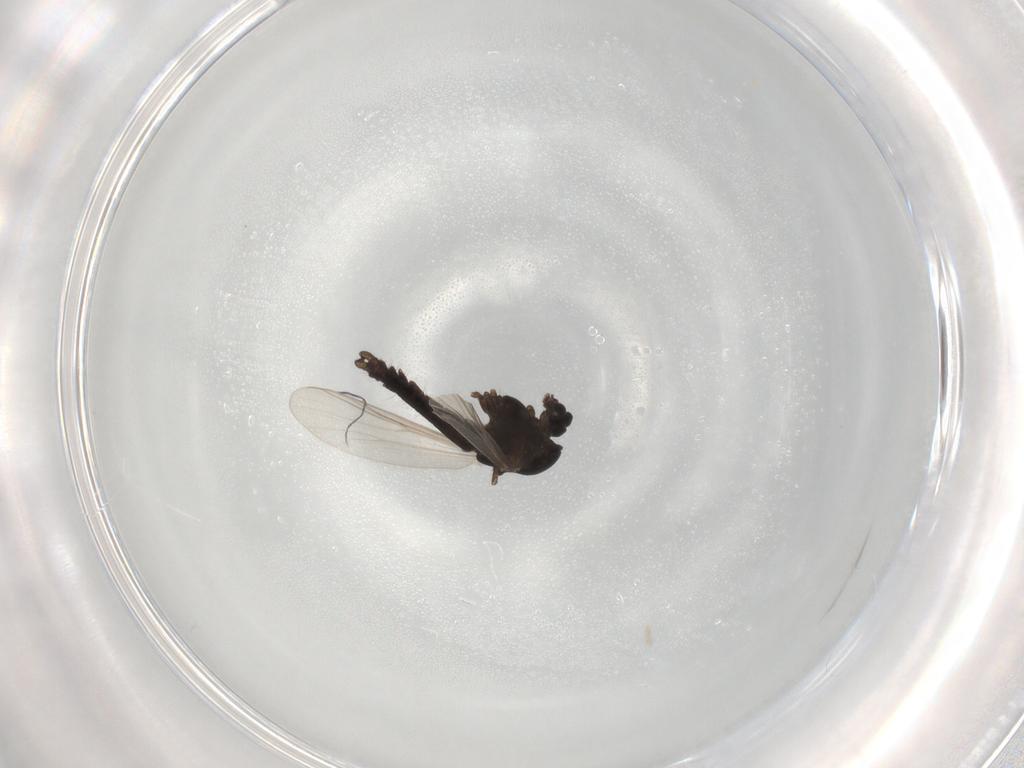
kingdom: Animalia
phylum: Arthropoda
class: Insecta
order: Diptera
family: Chironomidae
